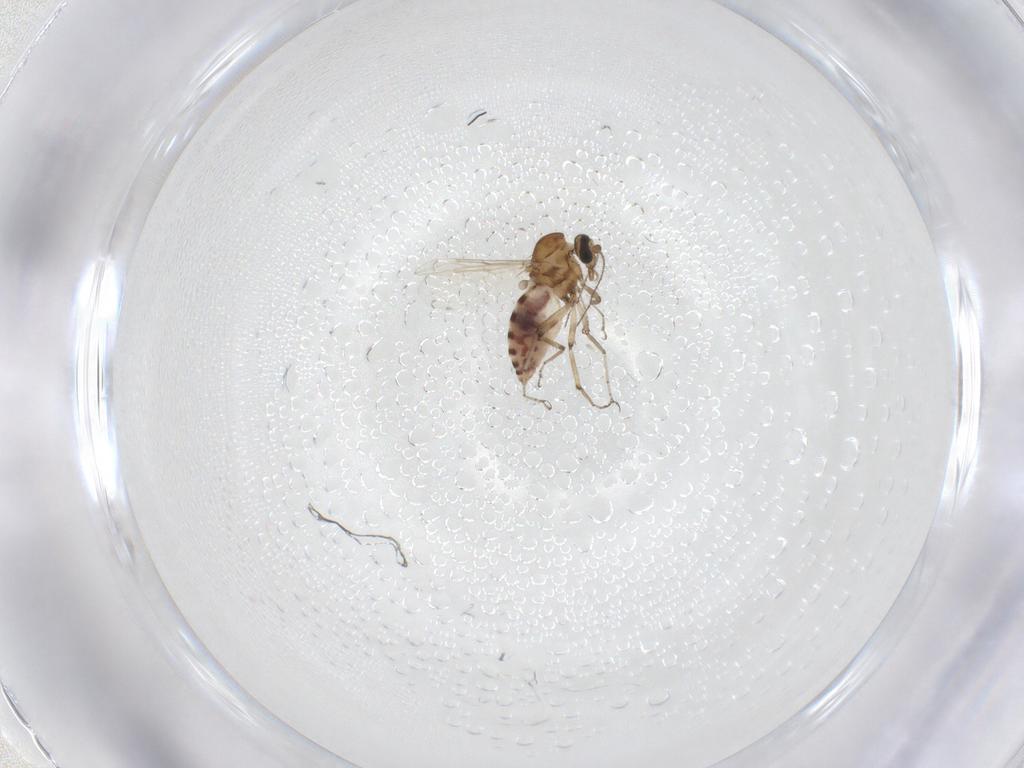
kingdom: Animalia
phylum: Arthropoda
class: Insecta
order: Diptera
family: Ceratopogonidae
